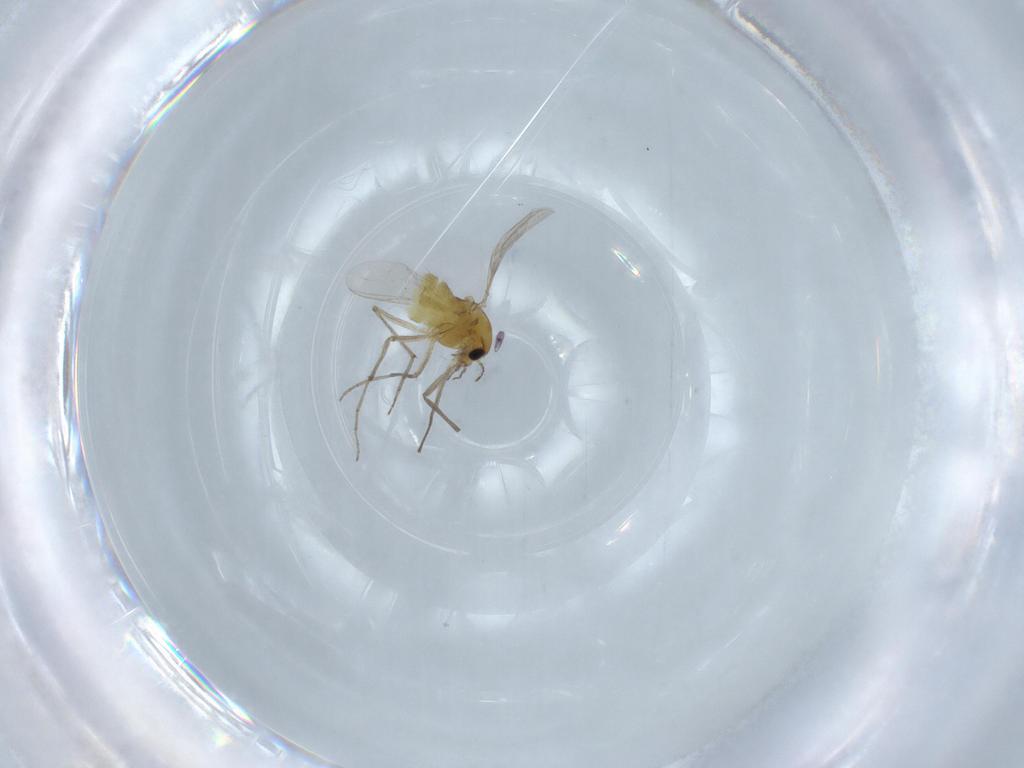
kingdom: Animalia
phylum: Arthropoda
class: Insecta
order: Diptera
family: Chironomidae
